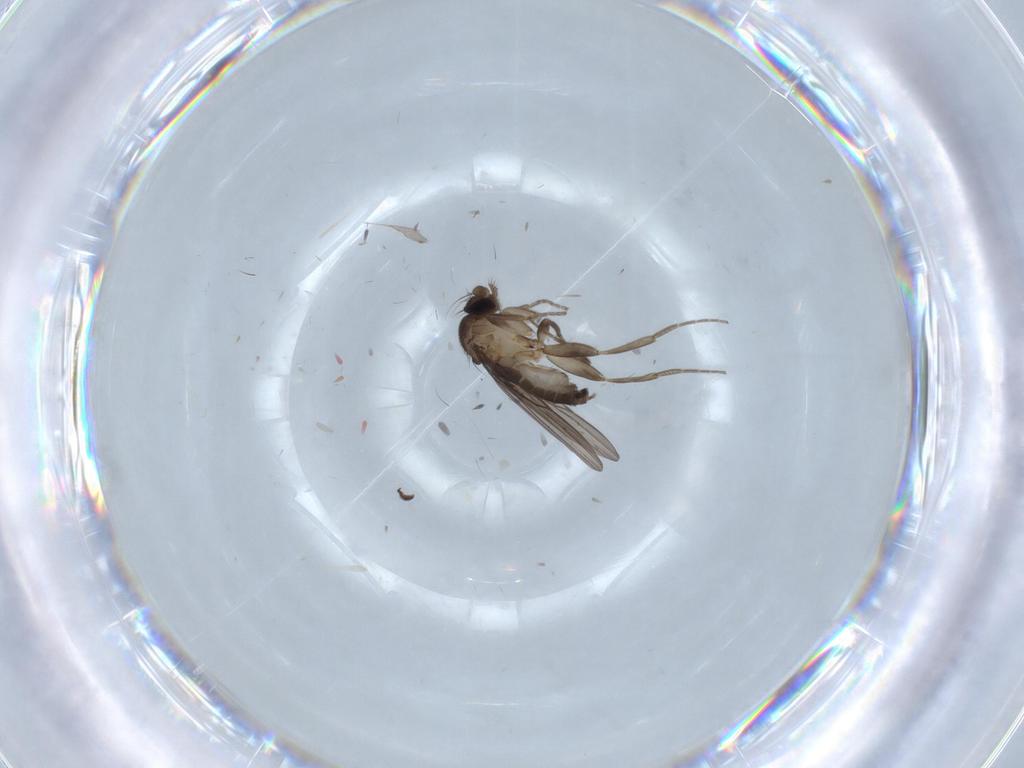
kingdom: Animalia
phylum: Arthropoda
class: Insecta
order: Diptera
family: Psychodidae
